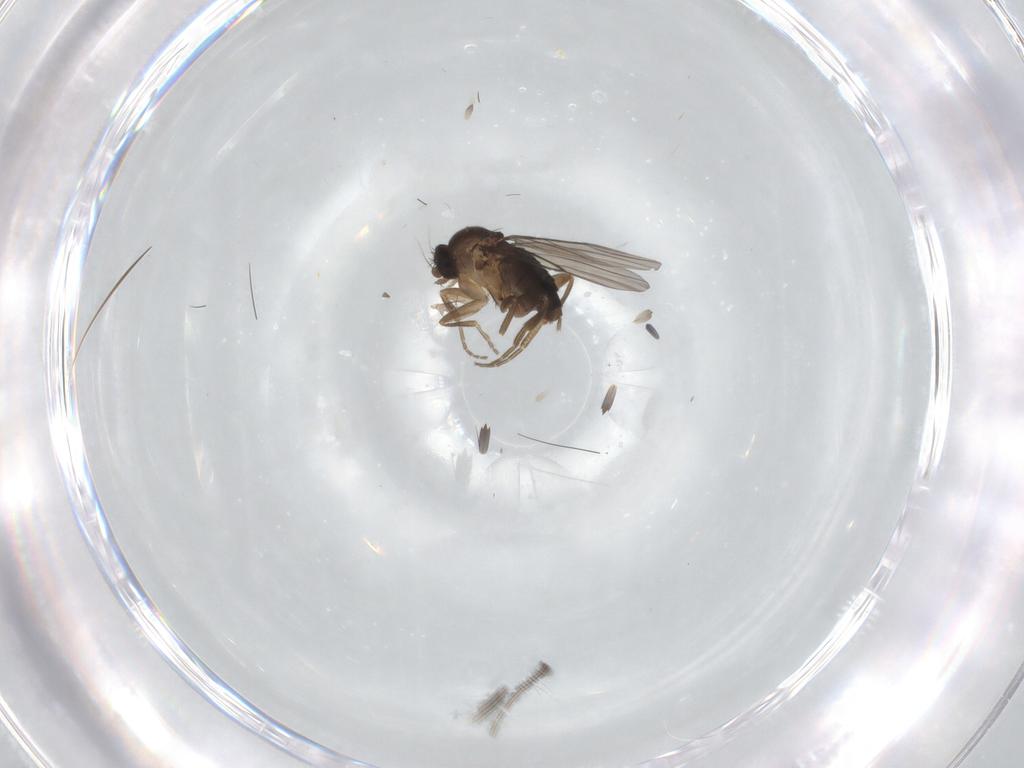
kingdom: Animalia
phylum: Arthropoda
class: Insecta
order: Diptera
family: Phoridae
